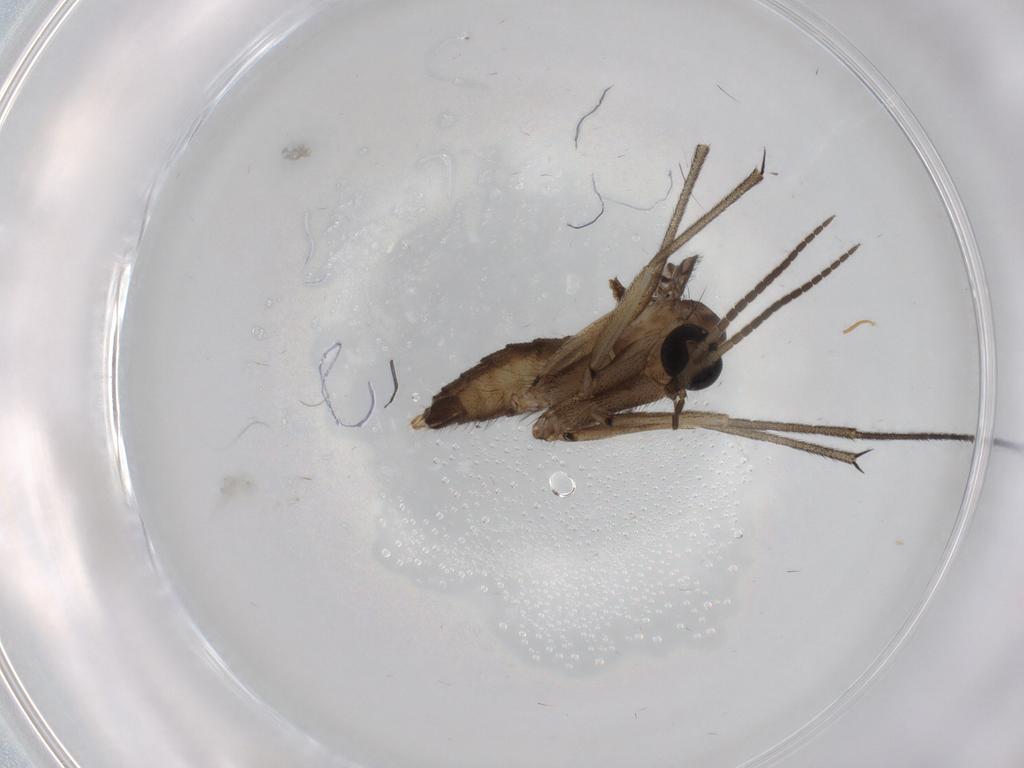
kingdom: Animalia
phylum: Arthropoda
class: Insecta
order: Diptera
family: Phoridae
